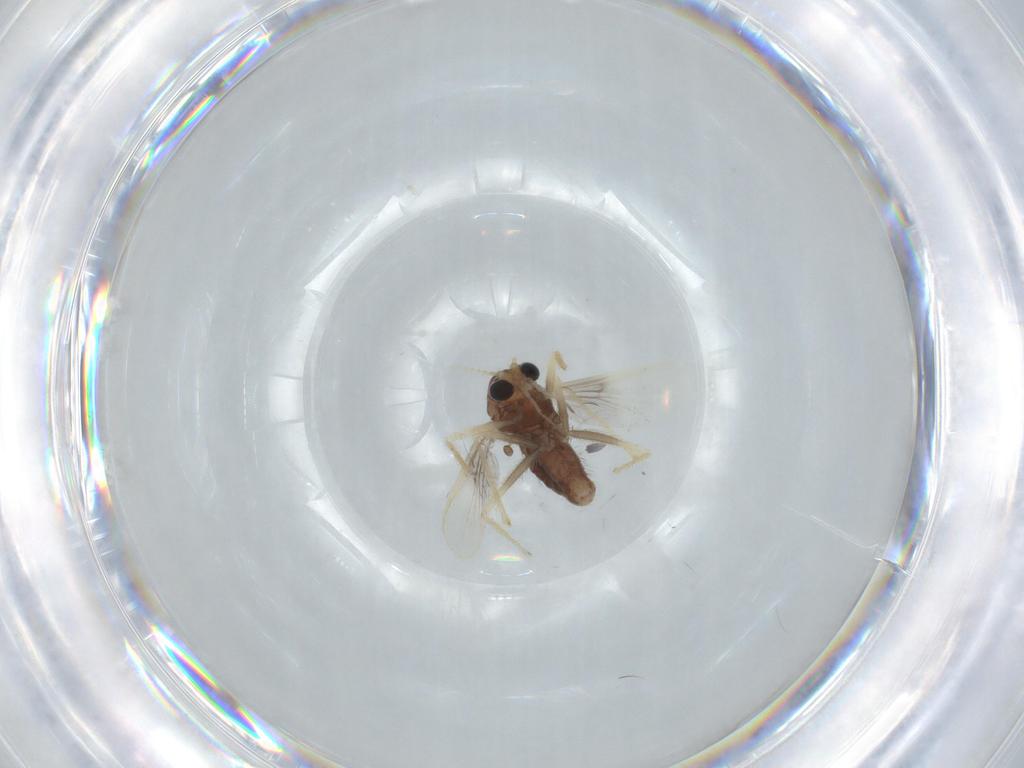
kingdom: Animalia
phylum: Arthropoda
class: Insecta
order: Diptera
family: Chironomidae
